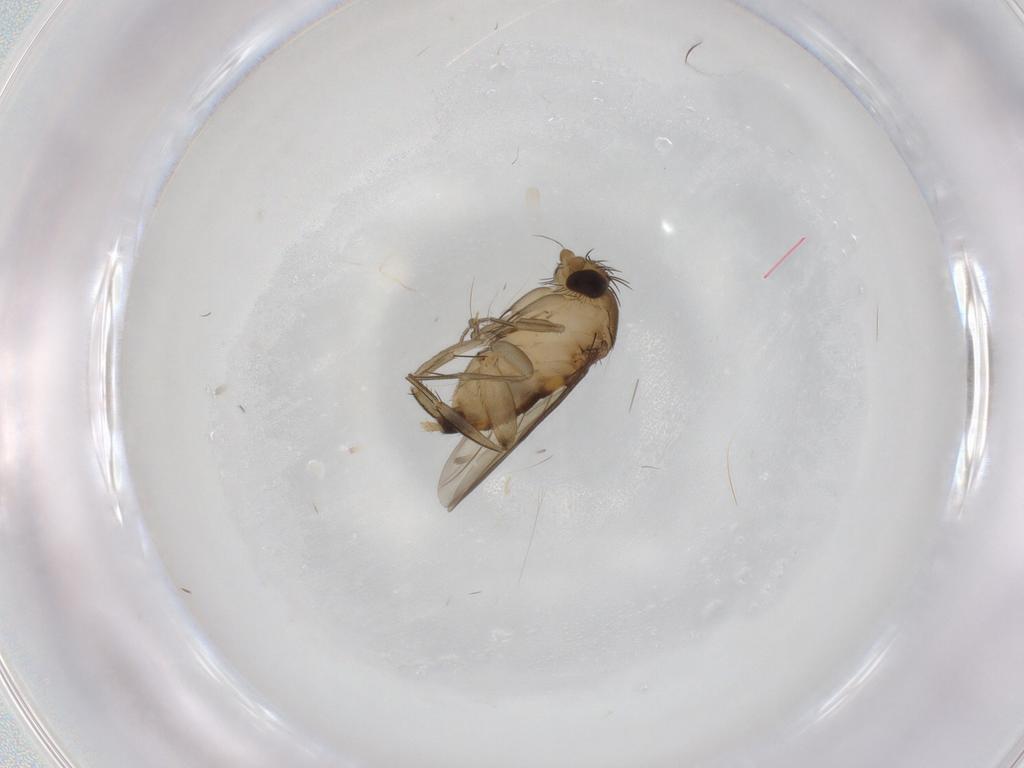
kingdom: Animalia
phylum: Arthropoda
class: Insecta
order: Diptera
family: Phoridae
